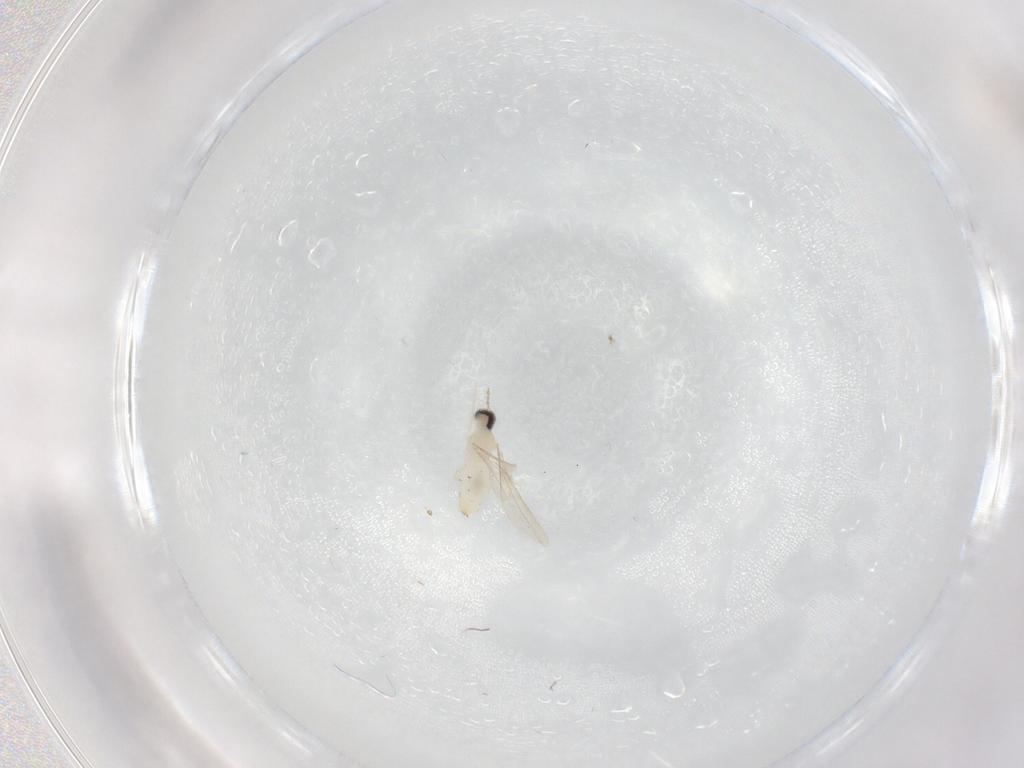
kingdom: Animalia
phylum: Arthropoda
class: Insecta
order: Diptera
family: Cecidomyiidae
